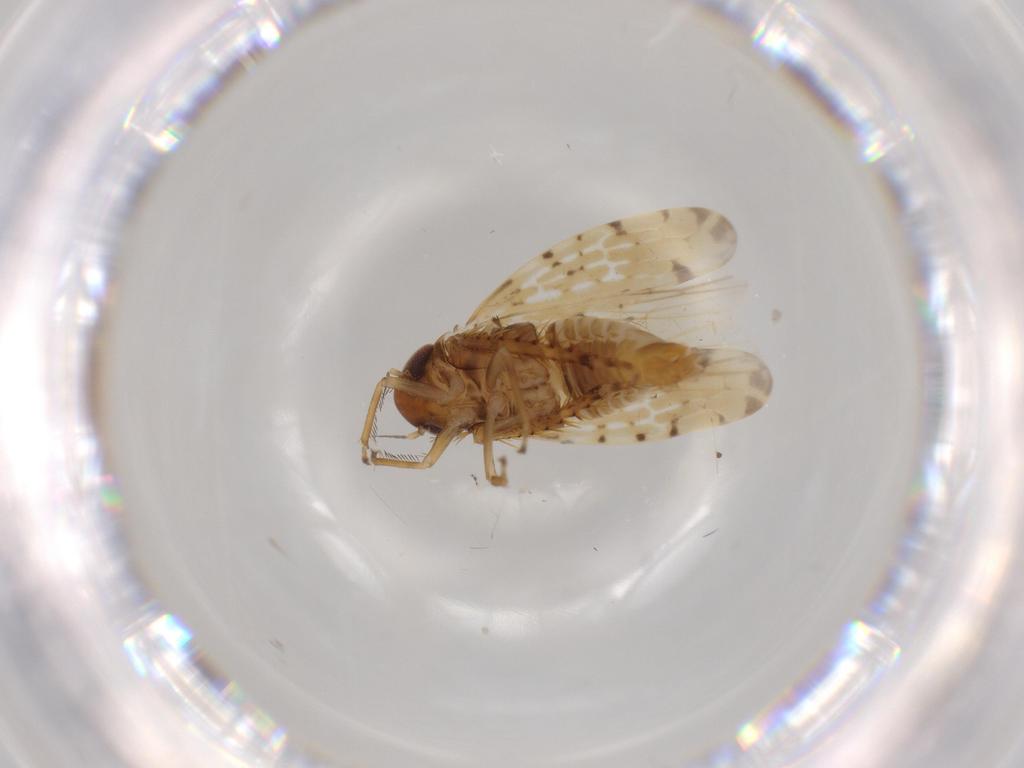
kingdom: Animalia
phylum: Arthropoda
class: Insecta
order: Hemiptera
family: Cicadellidae
